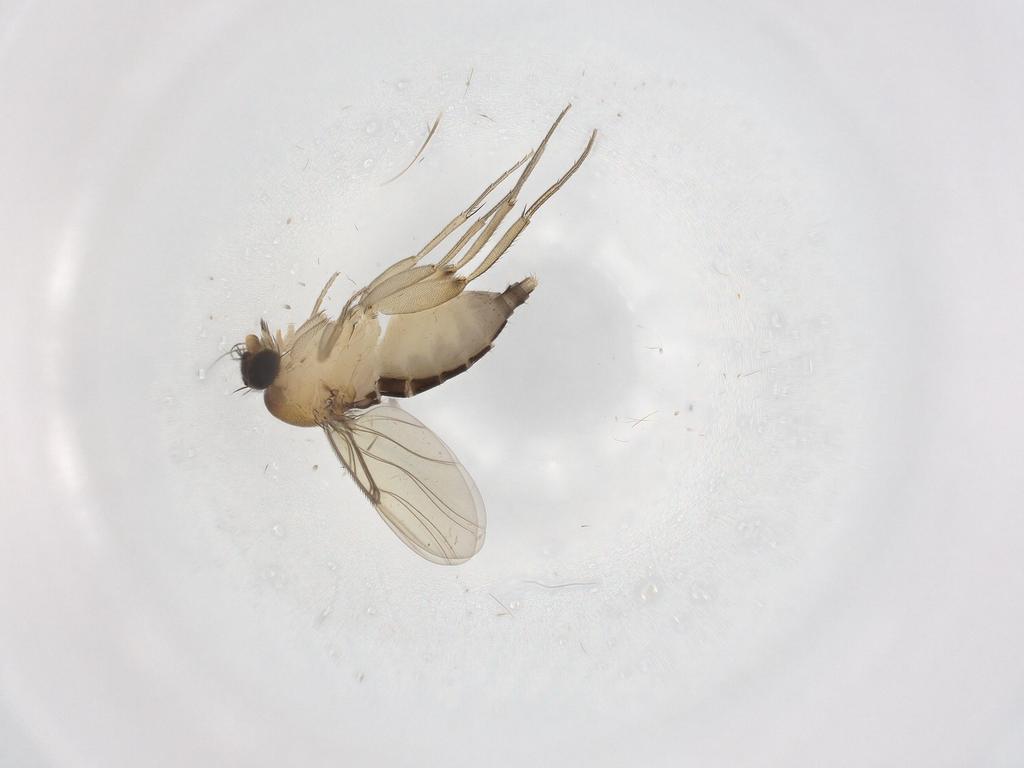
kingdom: Animalia
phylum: Arthropoda
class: Insecta
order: Diptera
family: Phoridae
